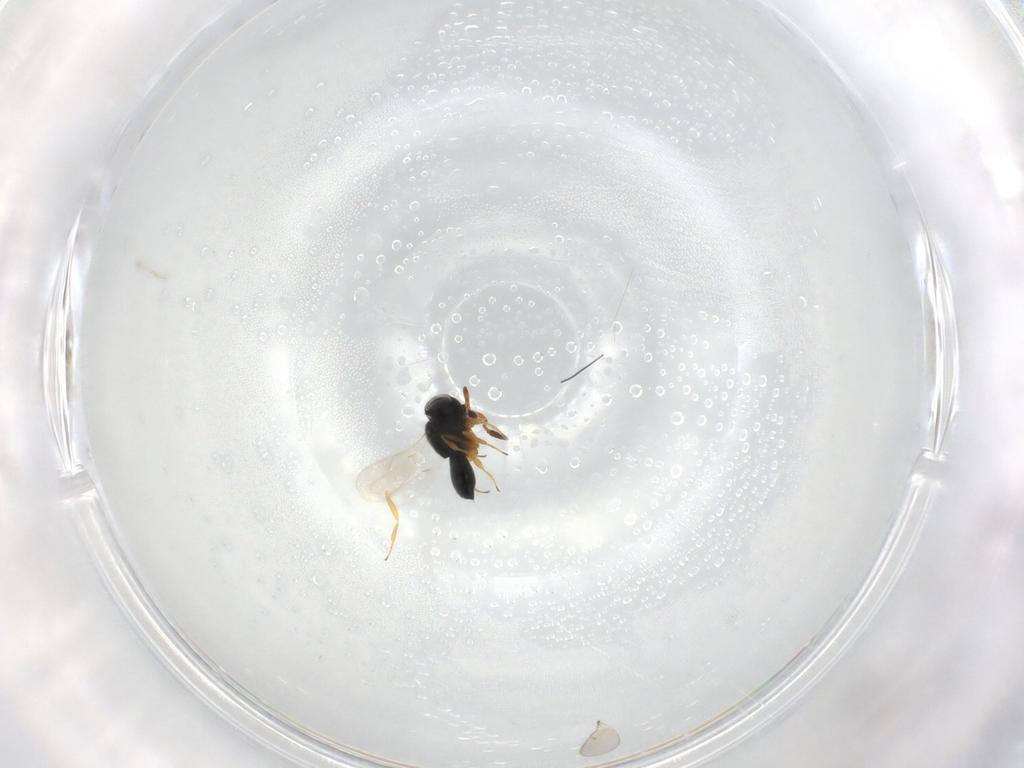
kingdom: Animalia
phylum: Arthropoda
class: Insecta
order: Hymenoptera
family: Scelionidae
